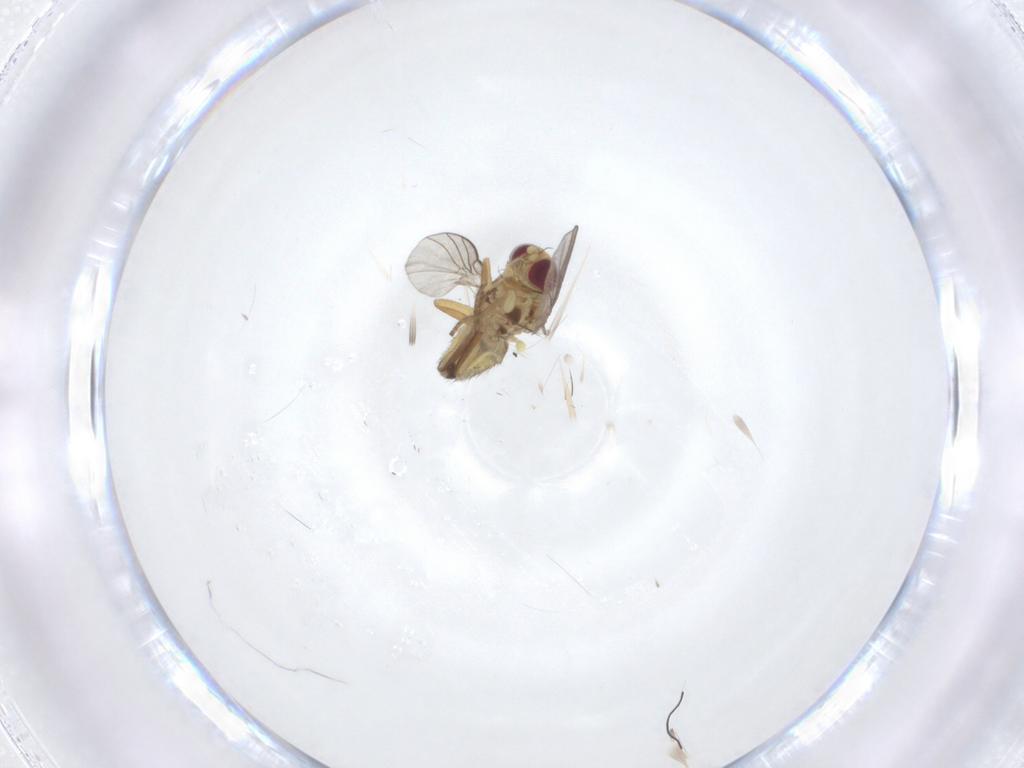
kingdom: Animalia
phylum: Arthropoda
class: Insecta
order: Diptera
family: Agromyzidae
